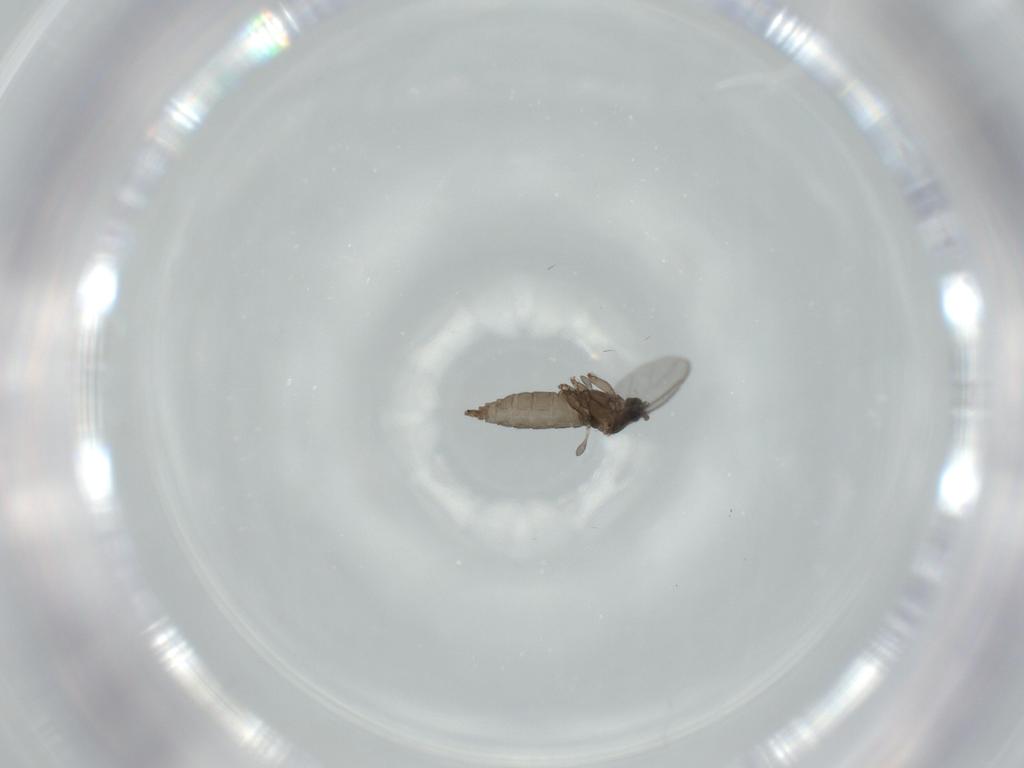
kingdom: Animalia
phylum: Arthropoda
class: Insecta
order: Diptera
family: Sciaridae
